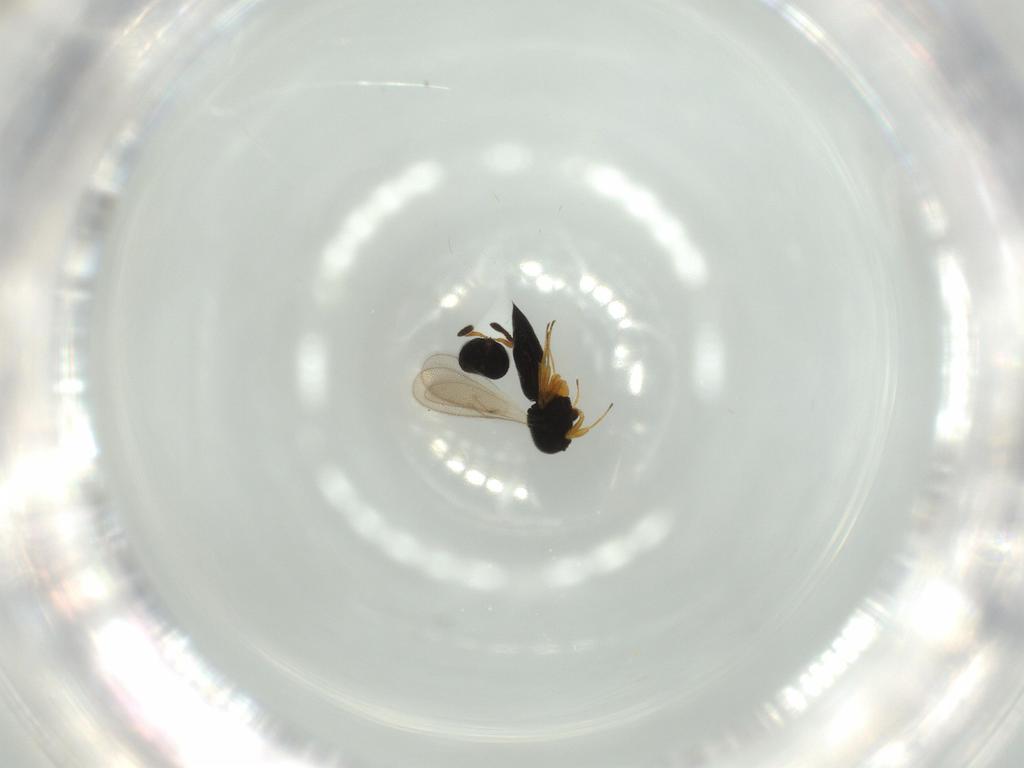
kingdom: Animalia
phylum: Arthropoda
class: Insecta
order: Hymenoptera
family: Scelionidae
